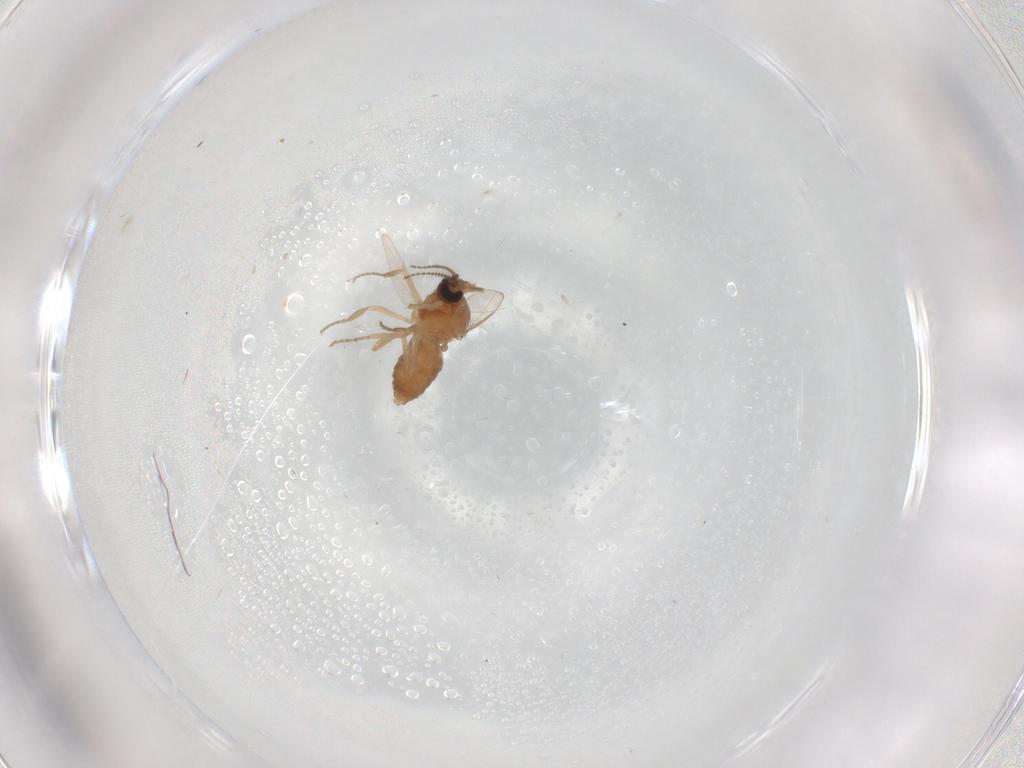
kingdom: Animalia
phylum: Arthropoda
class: Insecta
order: Diptera
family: Ceratopogonidae
